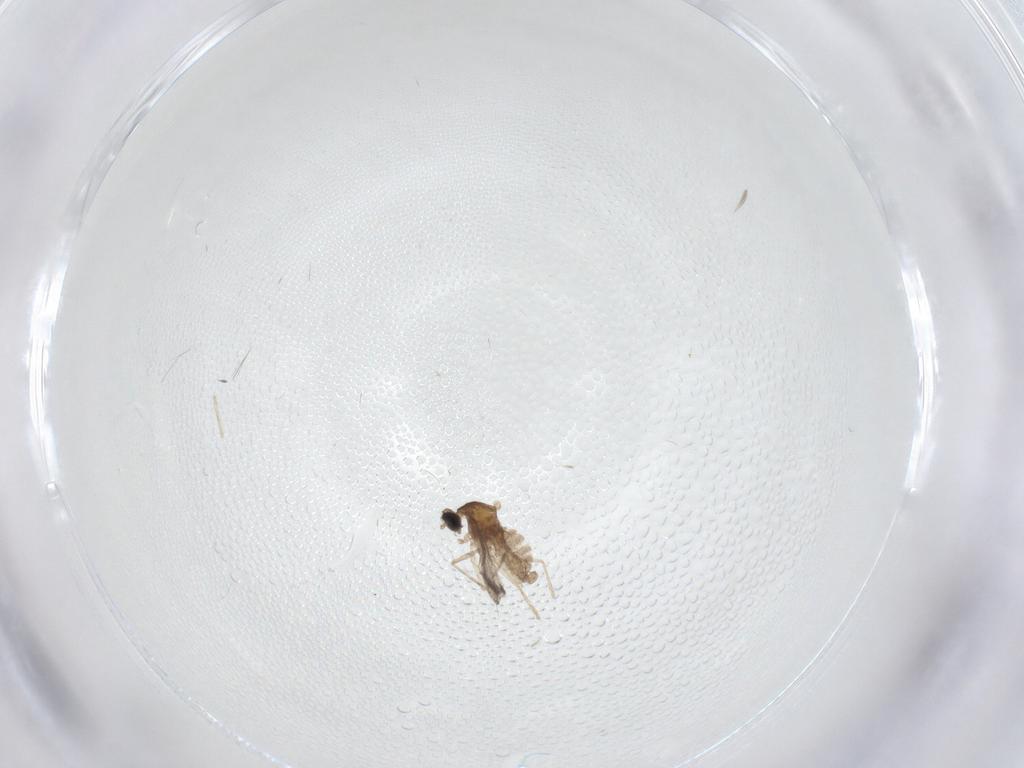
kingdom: Animalia
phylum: Arthropoda
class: Insecta
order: Diptera
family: Cecidomyiidae
